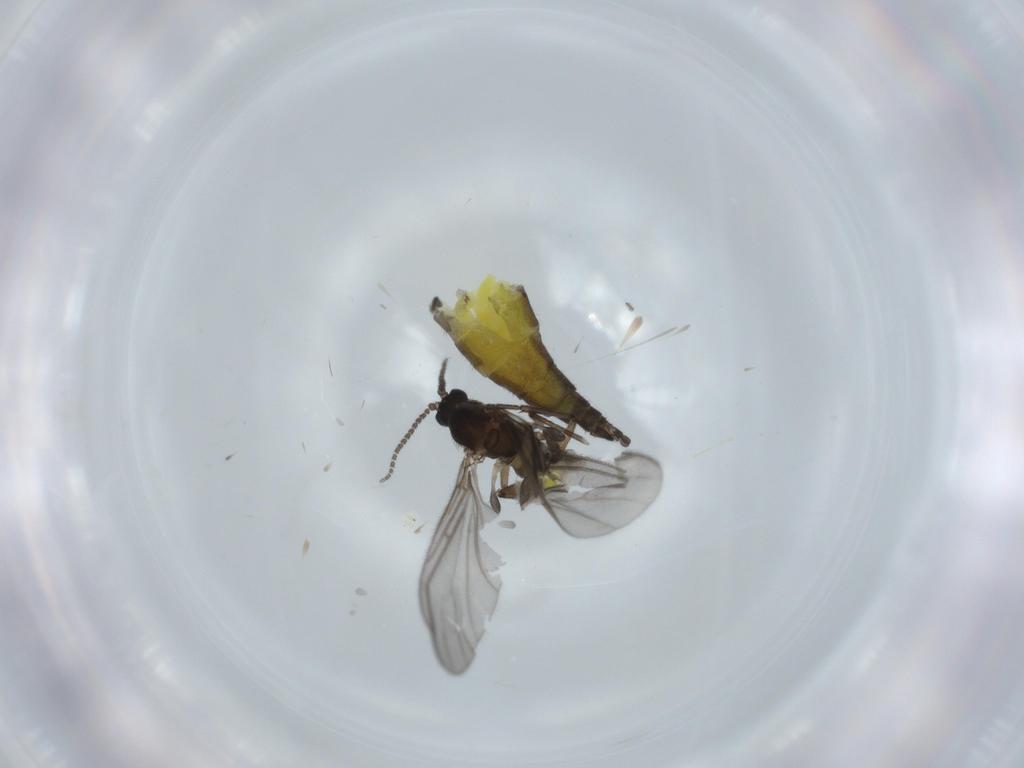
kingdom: Animalia
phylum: Arthropoda
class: Insecta
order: Diptera
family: Sciaridae
